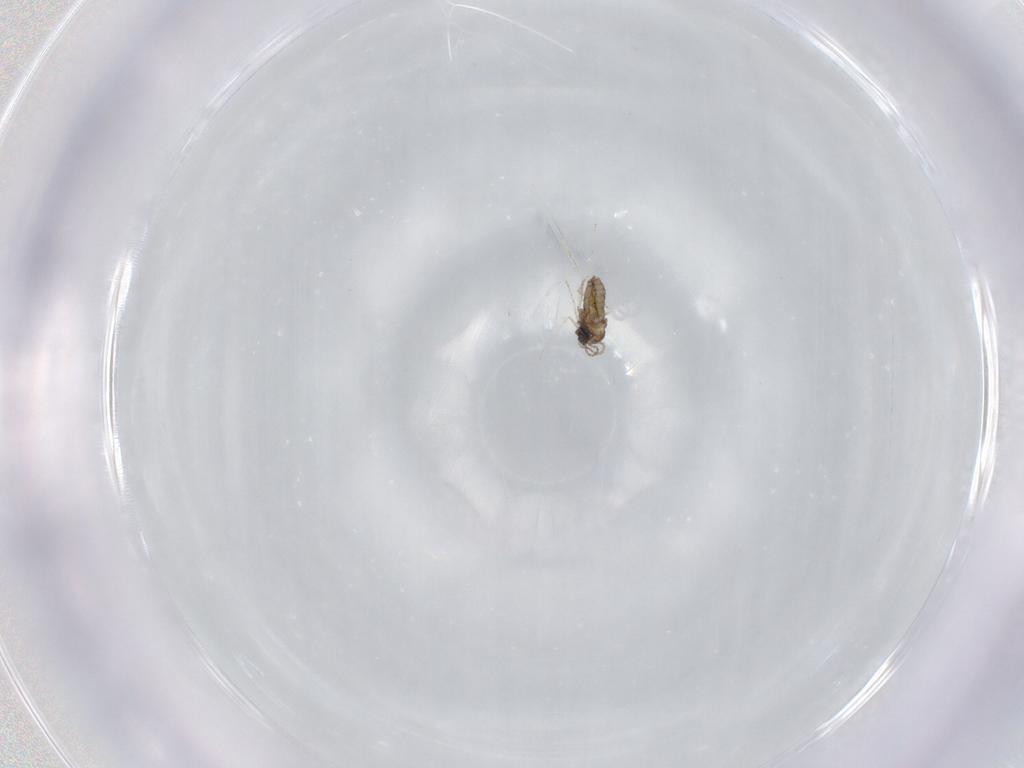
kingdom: Animalia
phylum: Arthropoda
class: Insecta
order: Diptera
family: Cecidomyiidae
